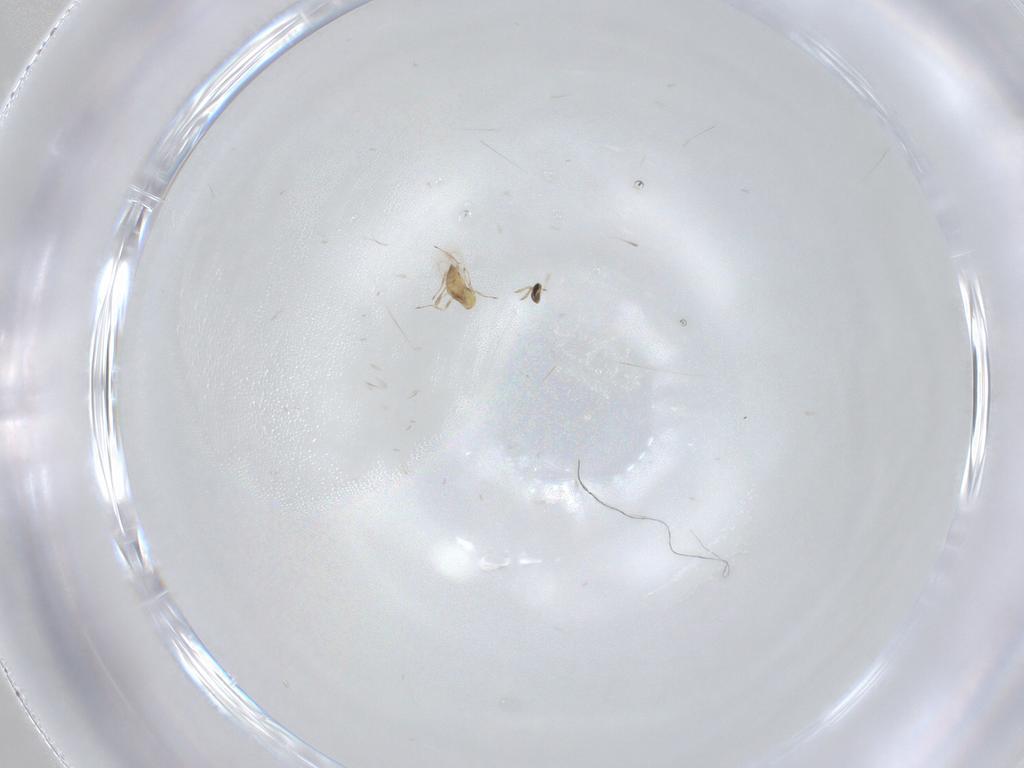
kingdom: Animalia
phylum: Arthropoda
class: Insecta
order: Hymenoptera
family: Trichogrammatidae
